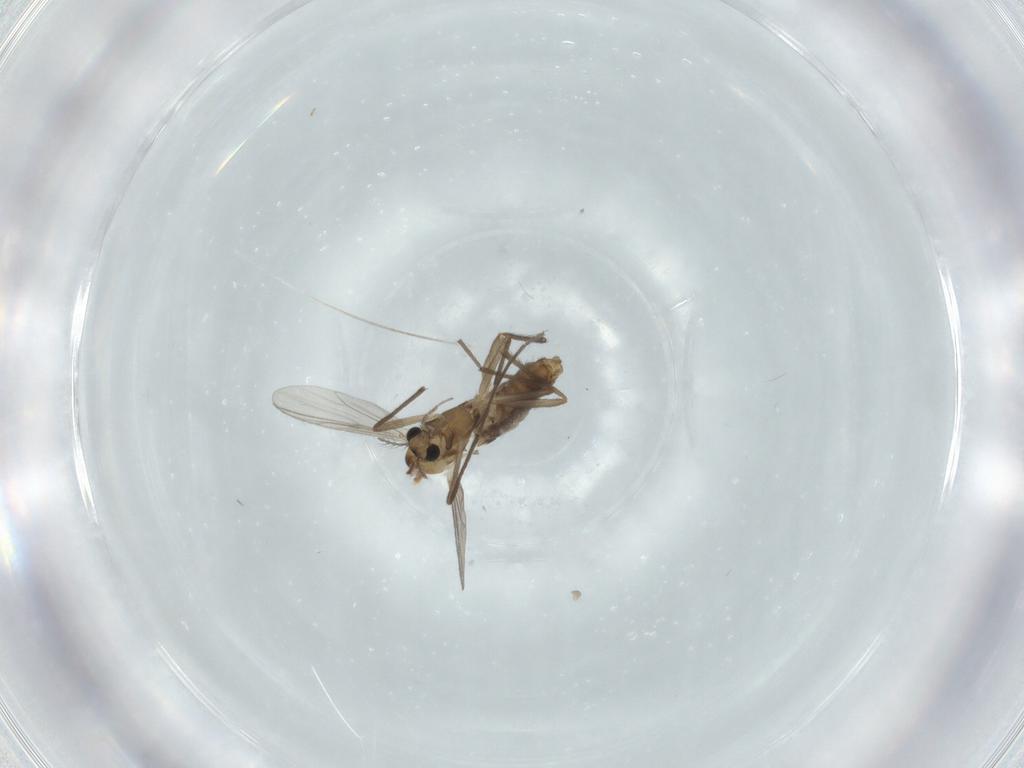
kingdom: Animalia
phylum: Arthropoda
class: Insecta
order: Diptera
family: Chironomidae
